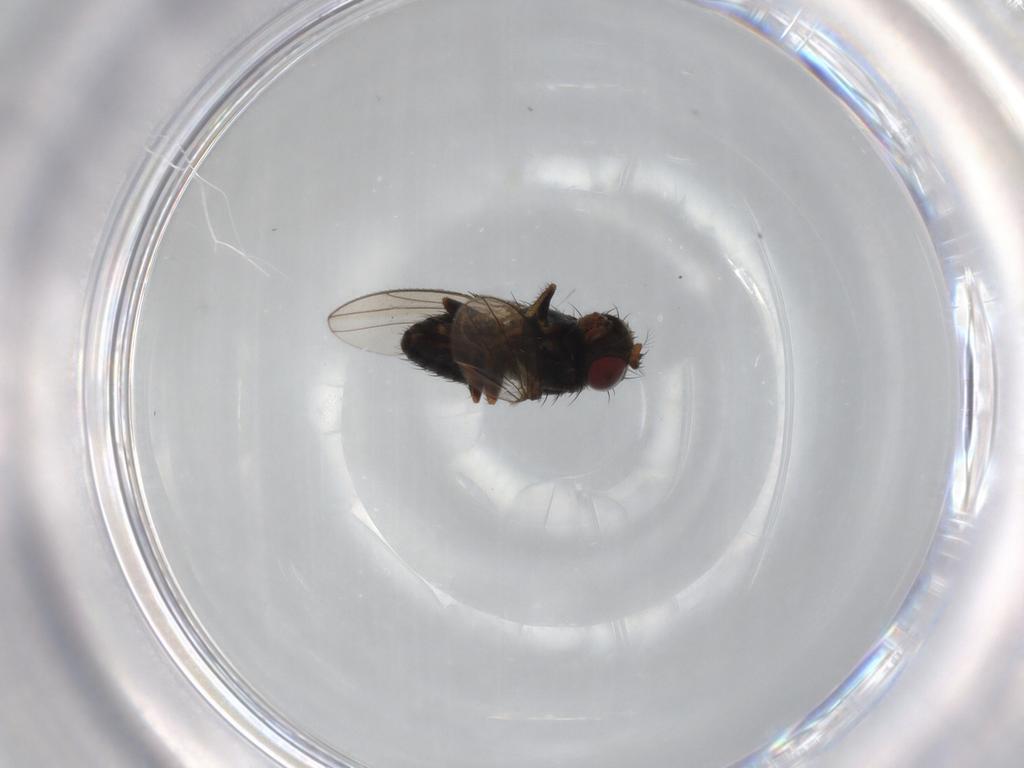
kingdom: Animalia
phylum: Arthropoda
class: Insecta
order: Diptera
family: Ephydridae
